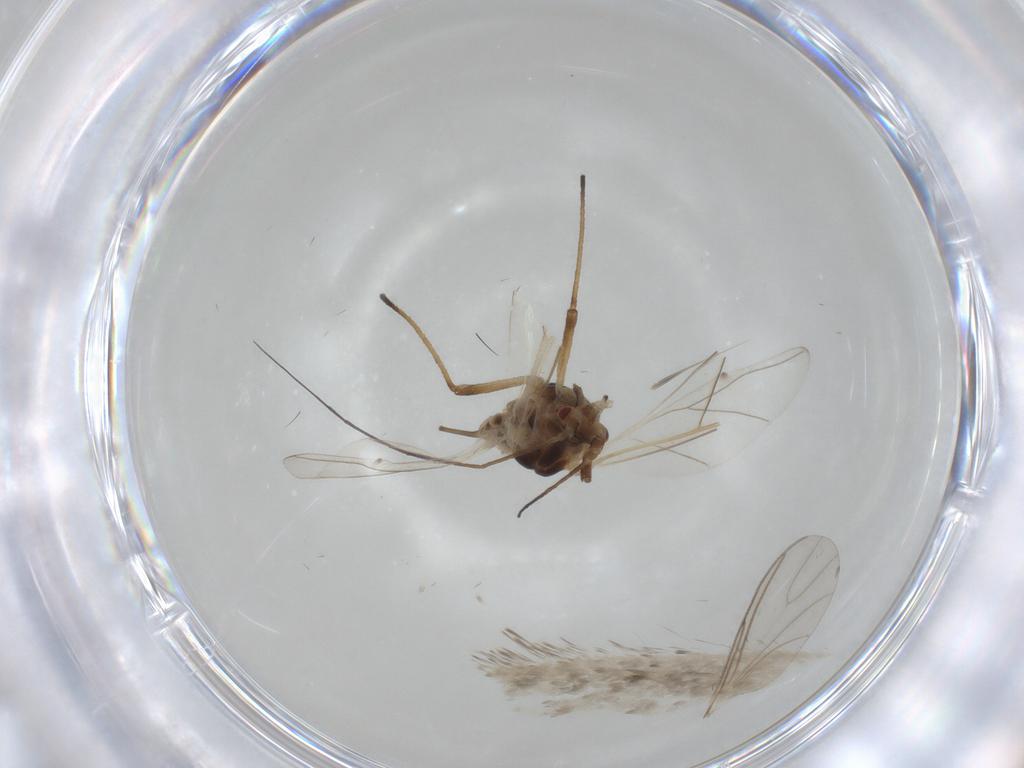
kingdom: Animalia
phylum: Arthropoda
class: Insecta
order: Hemiptera
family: Aphididae
